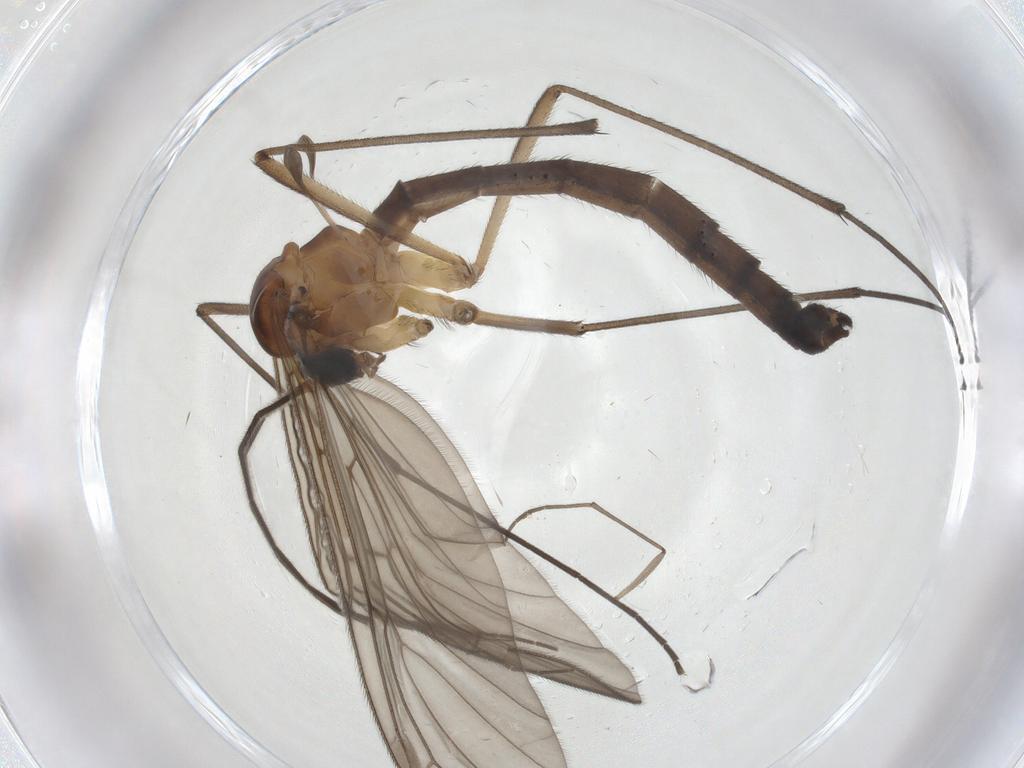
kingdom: Animalia
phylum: Arthropoda
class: Insecta
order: Diptera
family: Bolitophilidae
